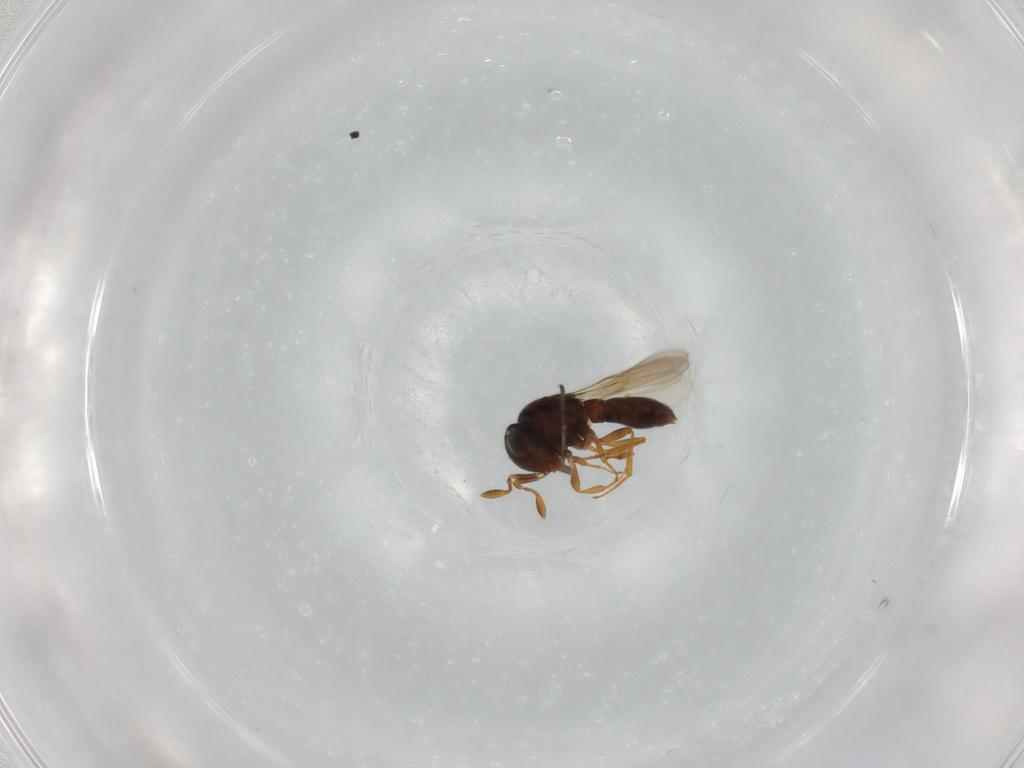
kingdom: Animalia
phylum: Arthropoda
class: Insecta
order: Hymenoptera
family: Scelionidae
